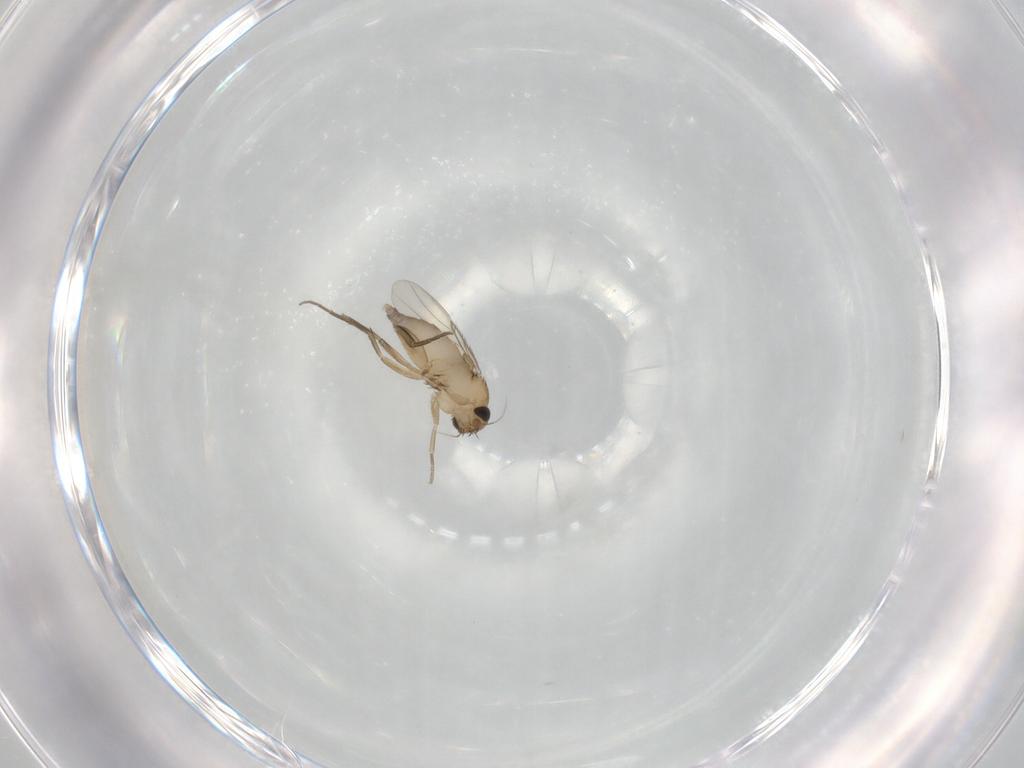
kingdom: Animalia
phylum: Arthropoda
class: Insecta
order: Diptera
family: Phoridae
